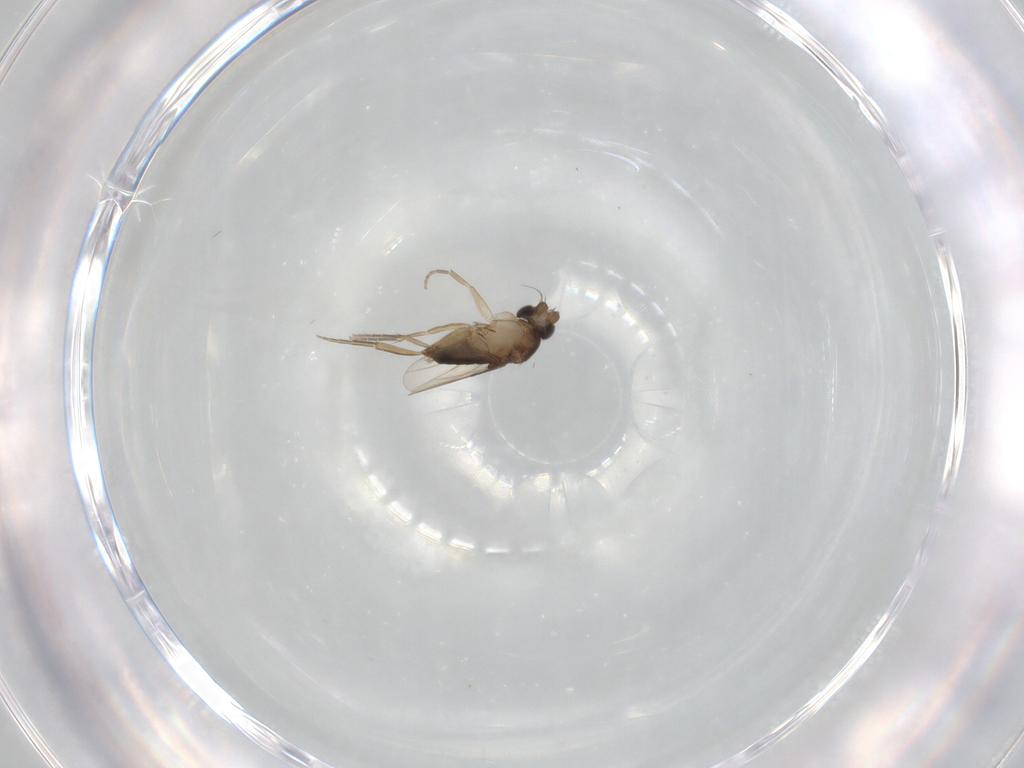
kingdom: Animalia
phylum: Arthropoda
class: Insecta
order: Diptera
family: Phoridae
